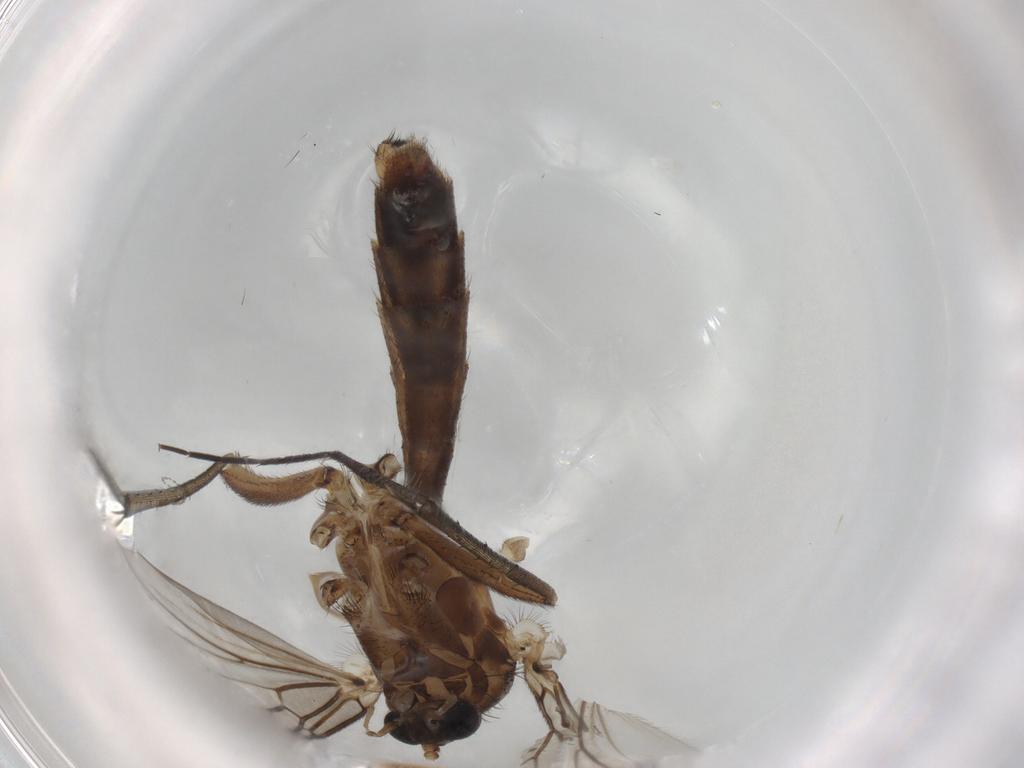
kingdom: Animalia
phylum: Arthropoda
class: Insecta
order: Diptera
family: Mycetophilidae
